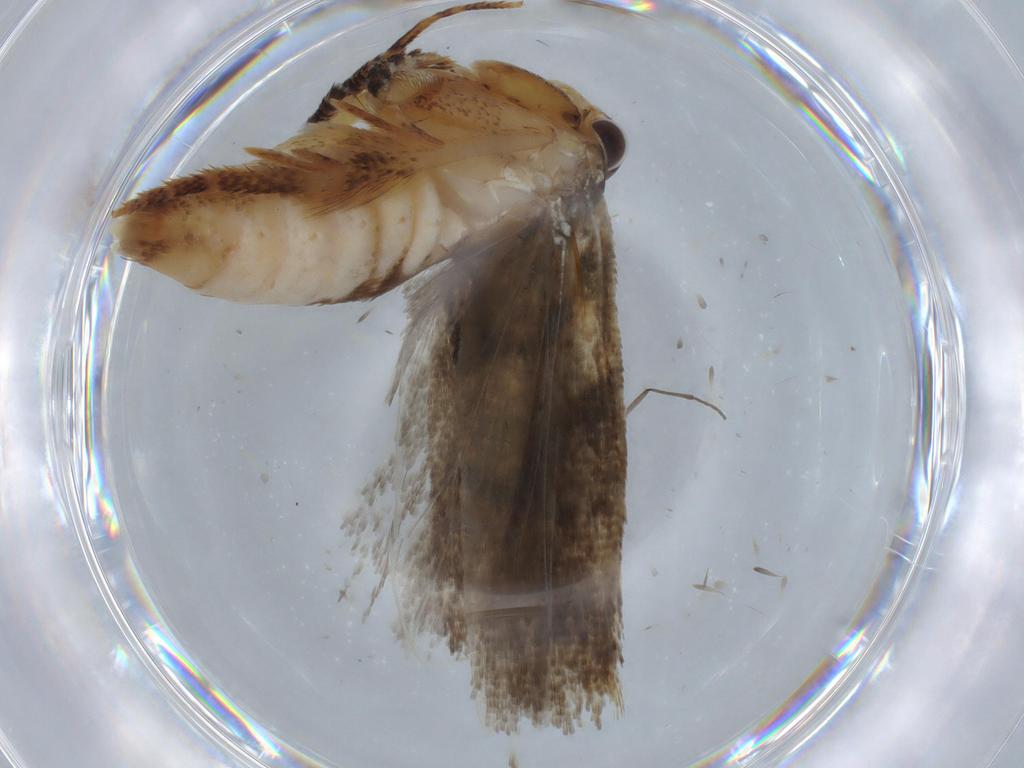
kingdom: Animalia
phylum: Arthropoda
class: Insecta
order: Lepidoptera
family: Gelechiidae
